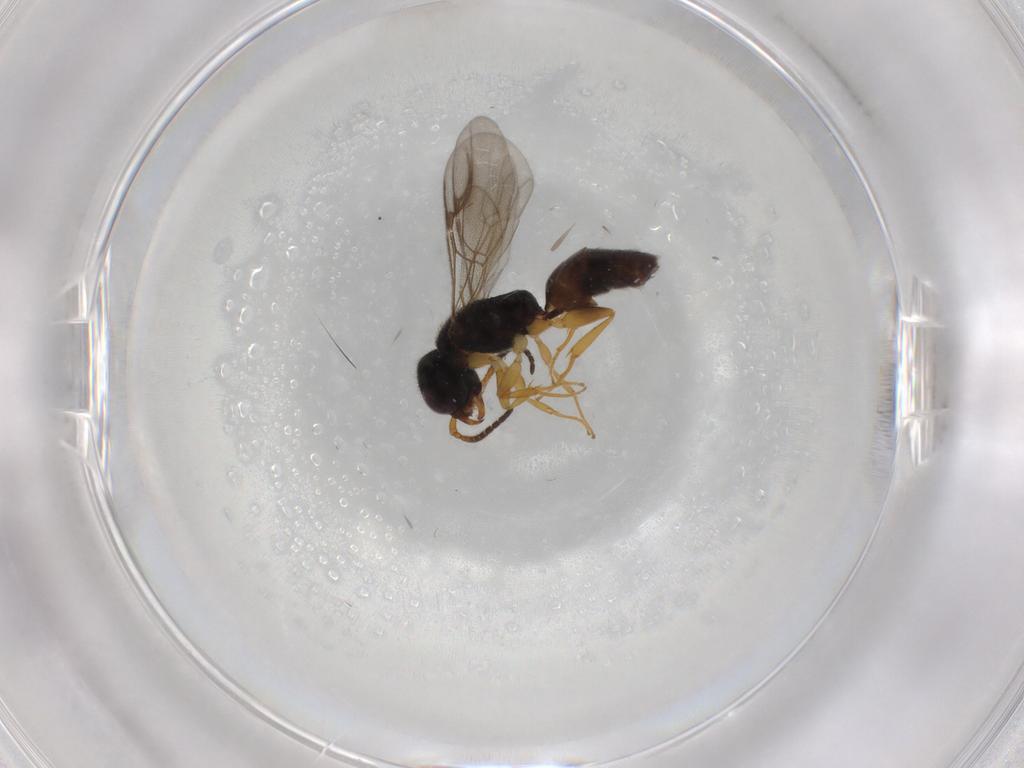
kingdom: Animalia
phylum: Arthropoda
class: Insecta
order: Hymenoptera
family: Bethylidae
